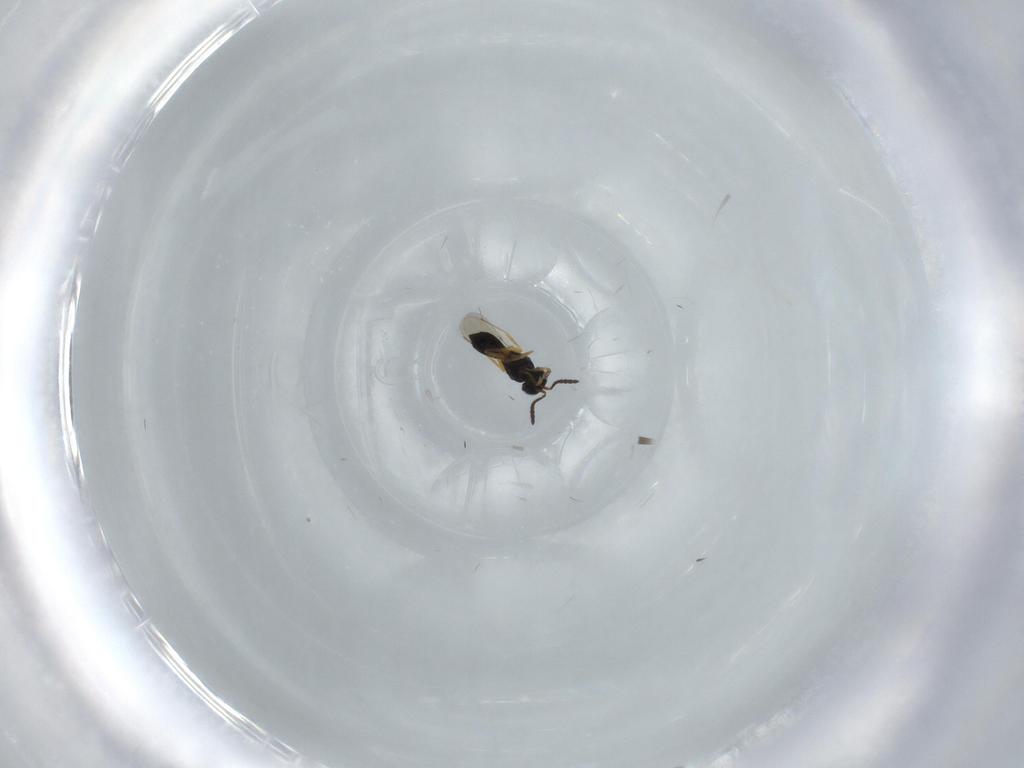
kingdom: Animalia
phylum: Arthropoda
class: Insecta
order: Hymenoptera
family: Scelionidae
